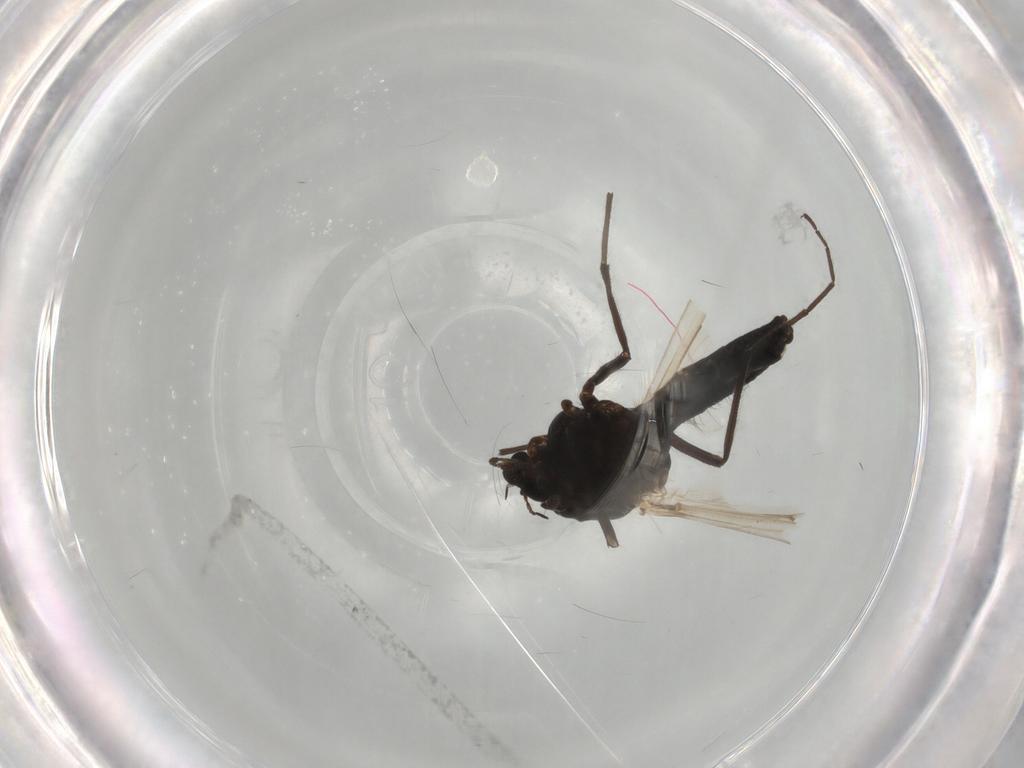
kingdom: Animalia
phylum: Arthropoda
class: Insecta
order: Diptera
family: Chironomidae
